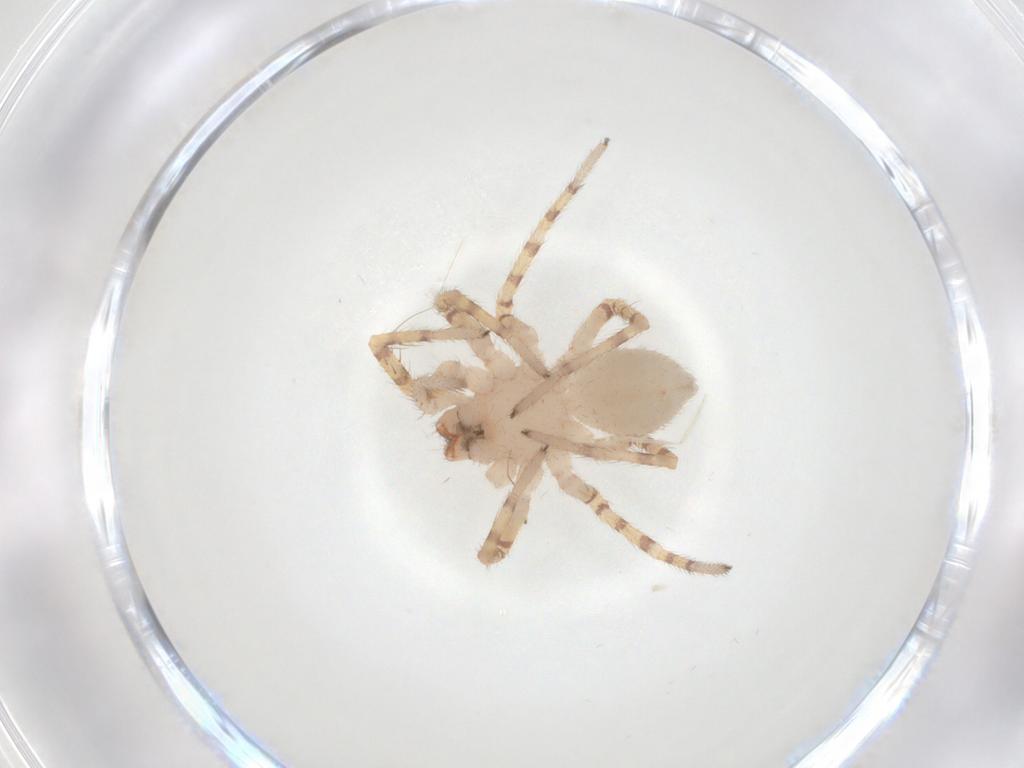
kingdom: Animalia
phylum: Arthropoda
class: Arachnida
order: Araneae
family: Corinnidae
